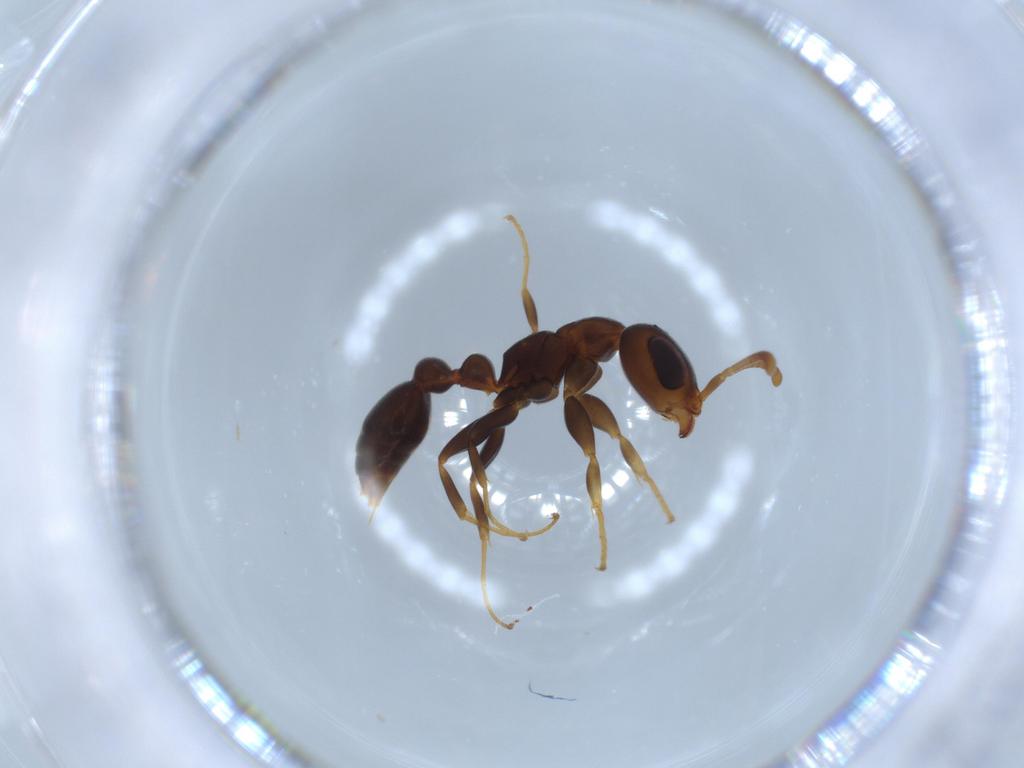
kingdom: Animalia
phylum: Arthropoda
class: Insecta
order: Hymenoptera
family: Formicidae
